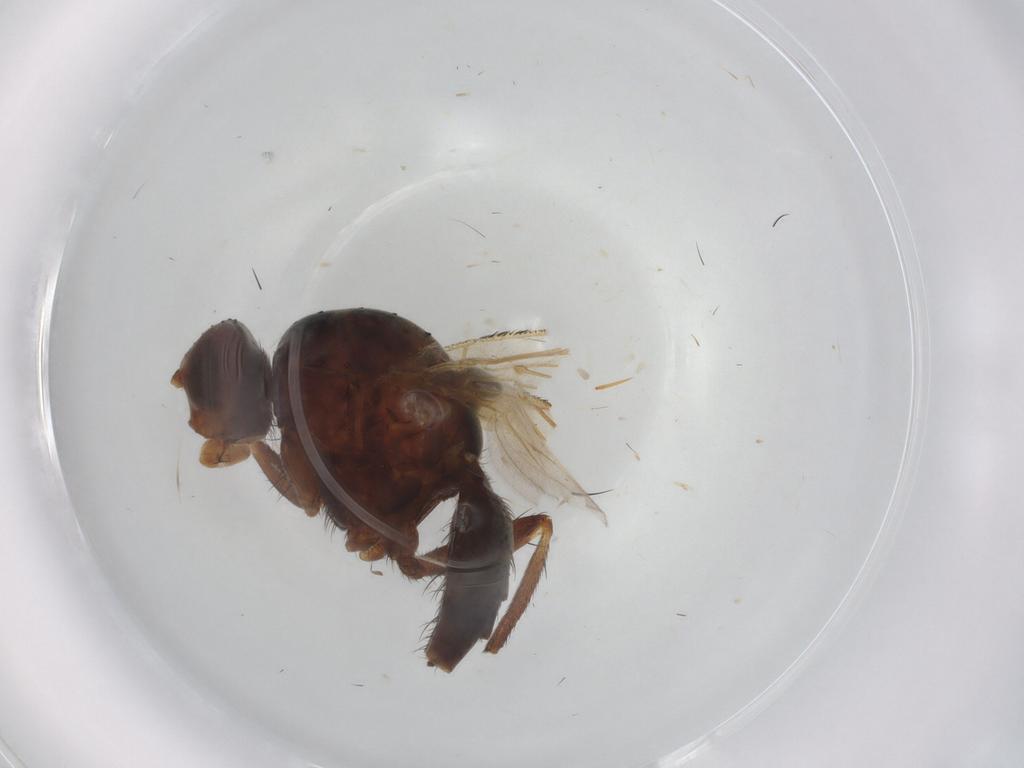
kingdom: Animalia
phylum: Arthropoda
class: Insecta
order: Diptera
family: Anthomyiidae
